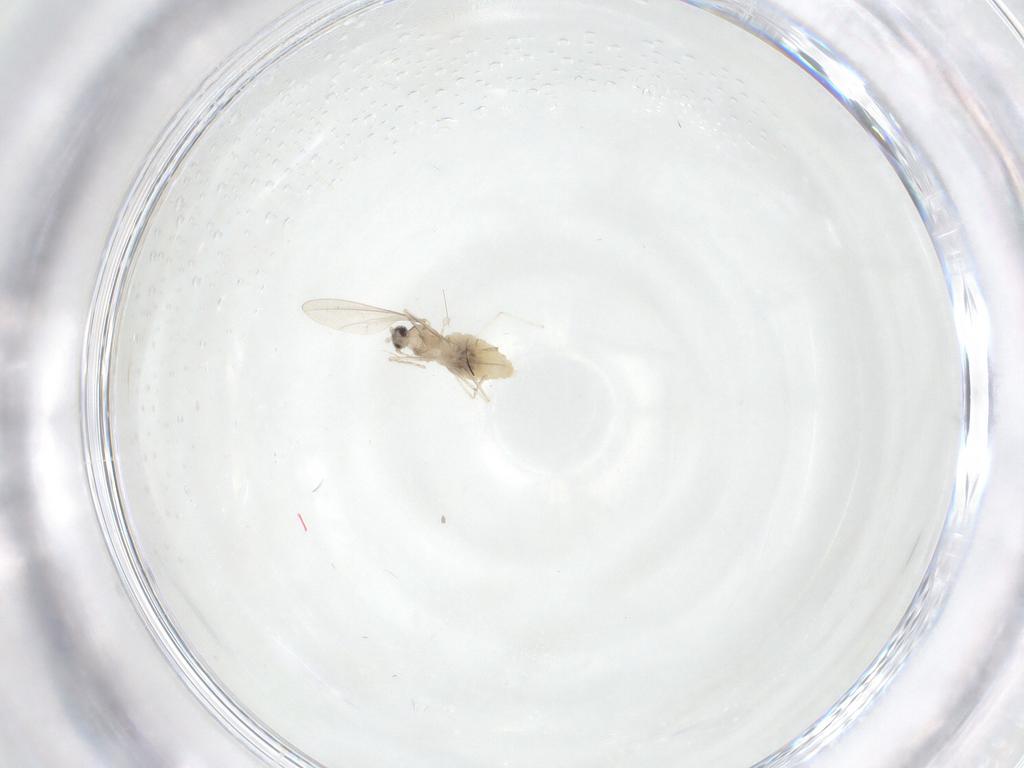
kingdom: Animalia
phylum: Arthropoda
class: Insecta
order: Diptera
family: Cecidomyiidae
